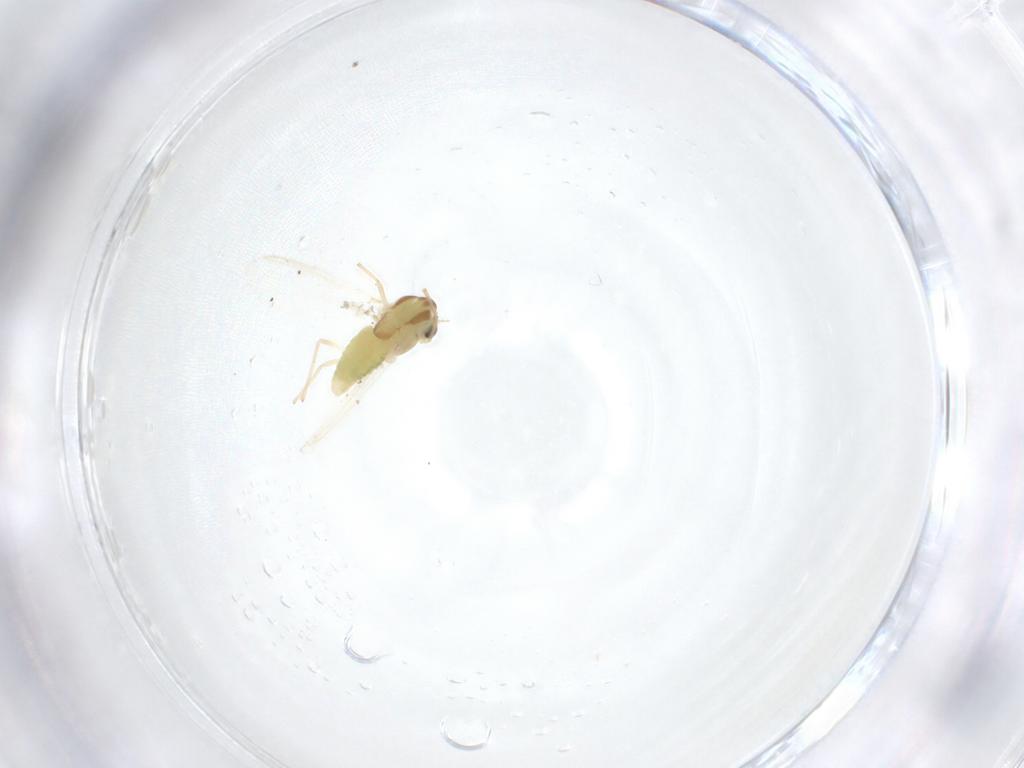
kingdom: Animalia
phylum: Arthropoda
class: Insecta
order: Diptera
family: Chironomidae
